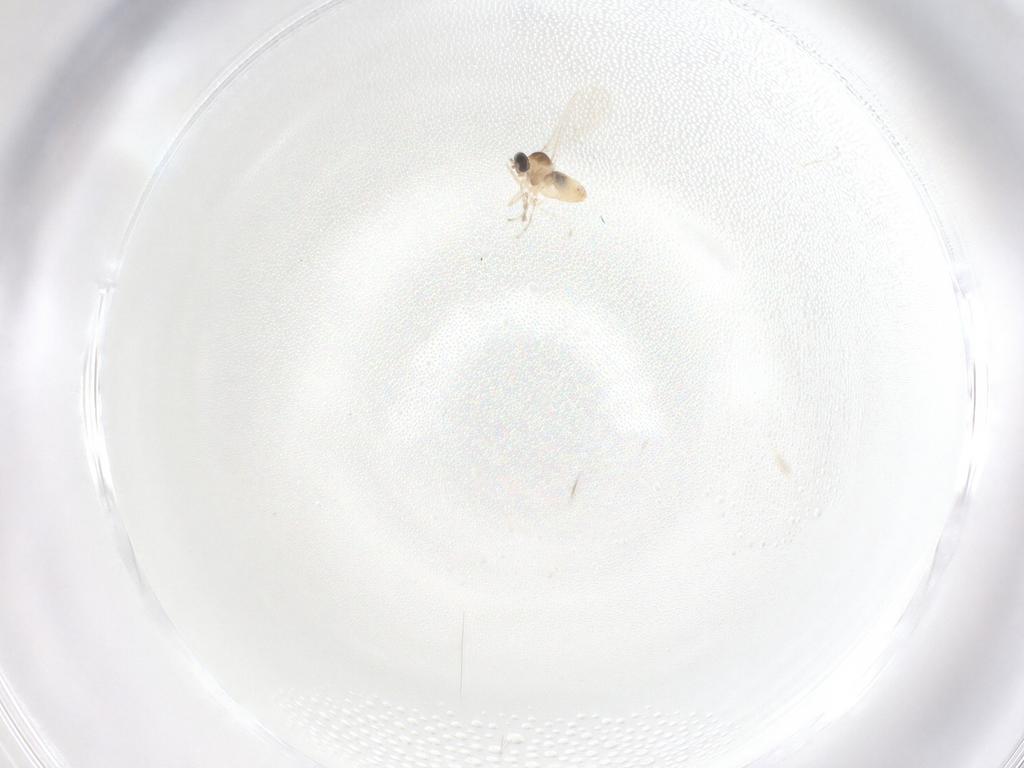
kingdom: Animalia
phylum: Arthropoda
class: Insecta
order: Diptera
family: Cecidomyiidae
